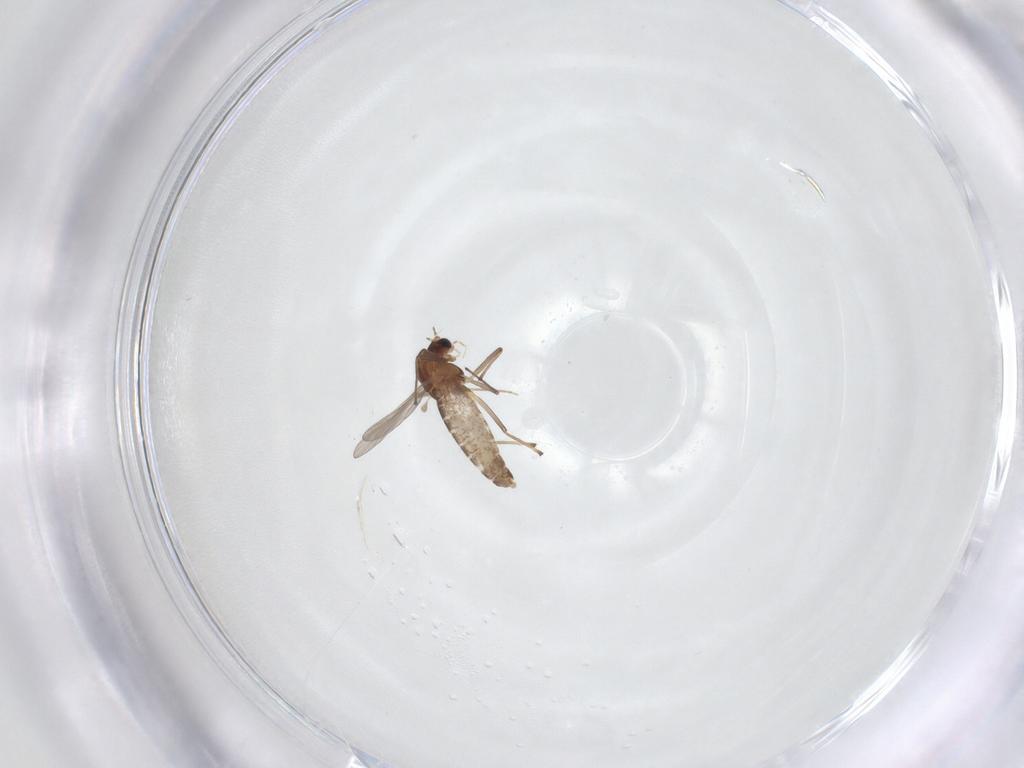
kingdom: Animalia
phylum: Arthropoda
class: Insecta
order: Diptera
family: Chironomidae
